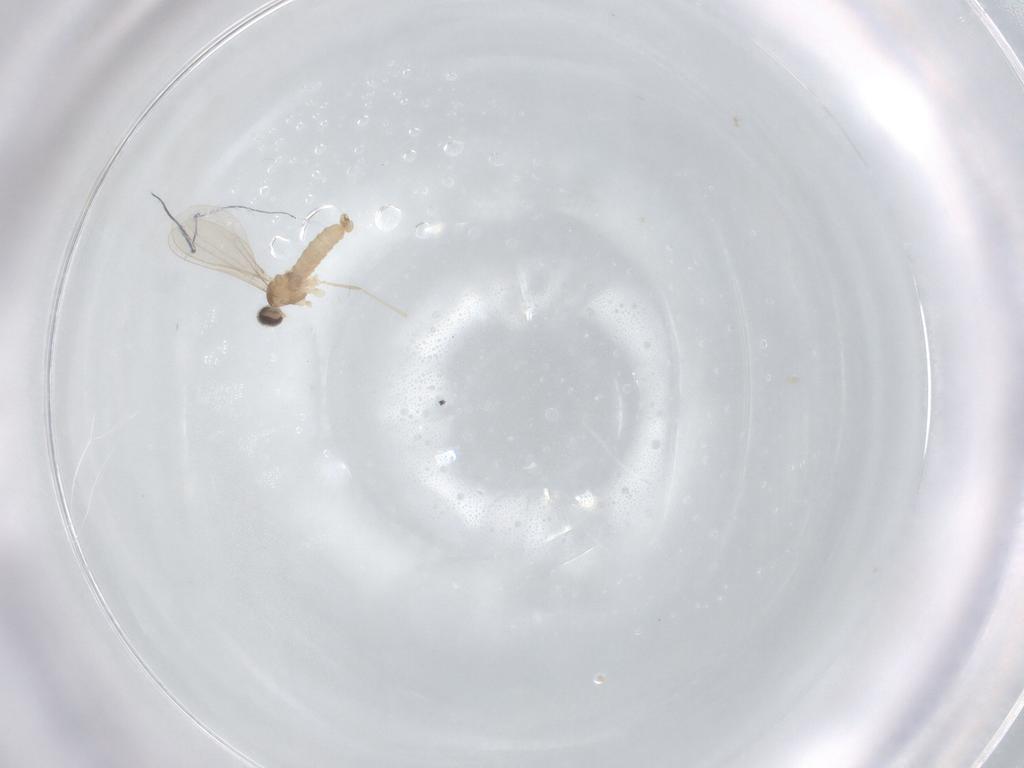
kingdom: Animalia
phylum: Arthropoda
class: Insecta
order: Diptera
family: Cecidomyiidae
